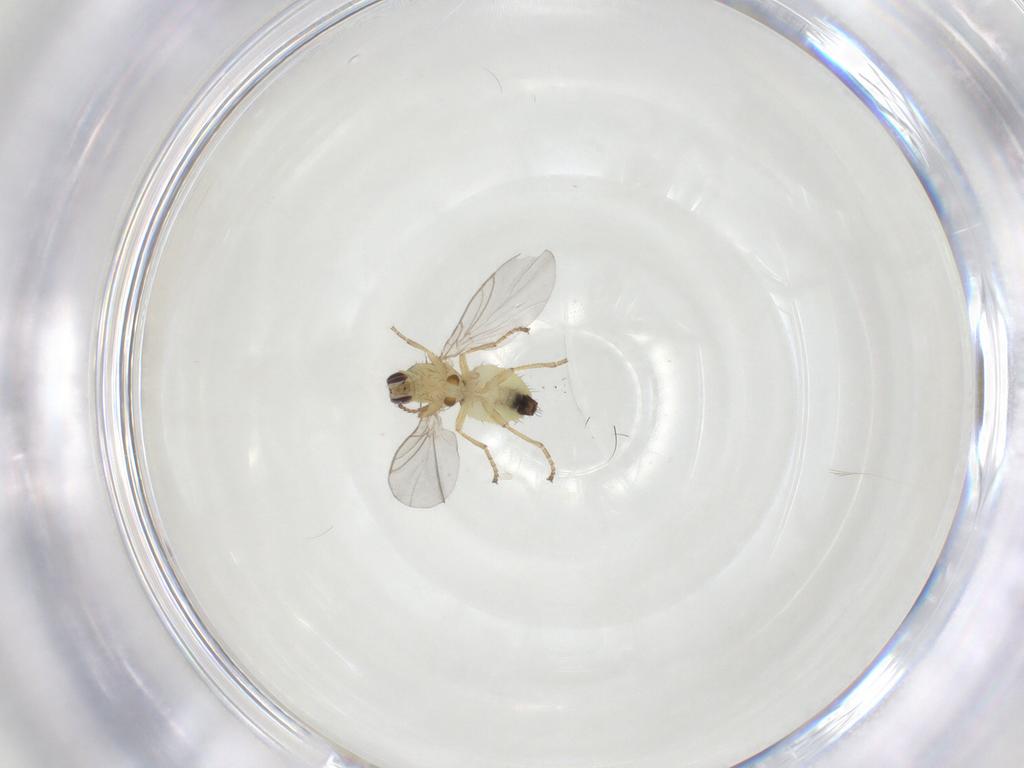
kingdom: Animalia
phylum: Arthropoda
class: Insecta
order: Diptera
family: Agromyzidae
